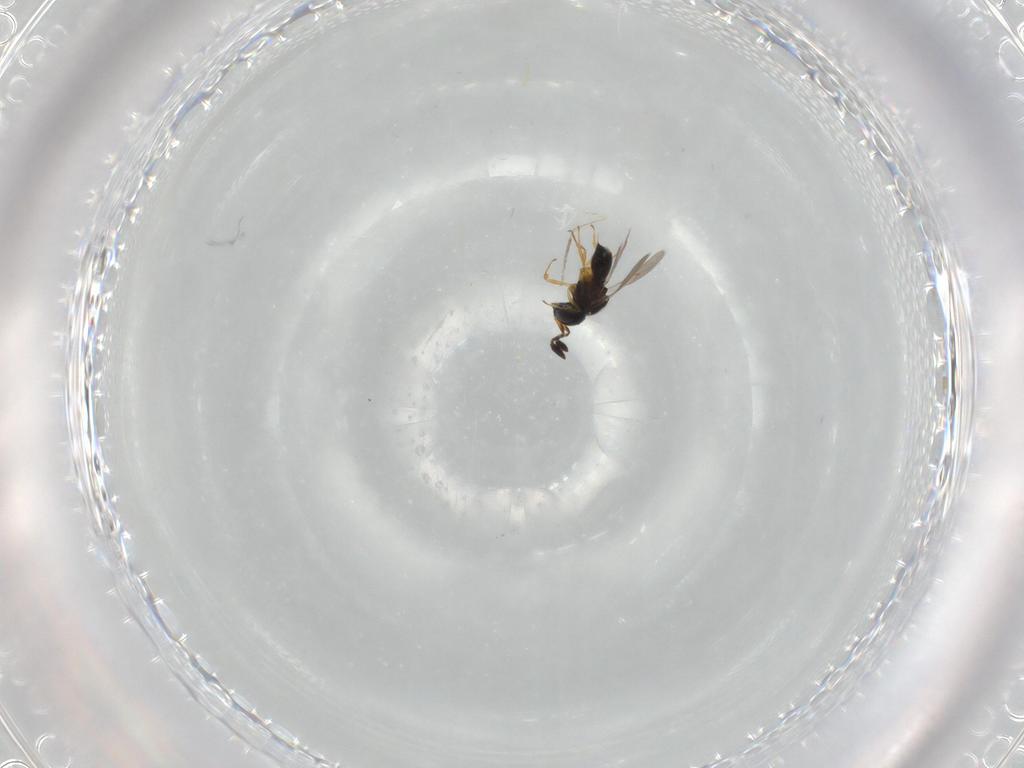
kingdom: Animalia
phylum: Arthropoda
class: Insecta
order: Hymenoptera
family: Scelionidae
